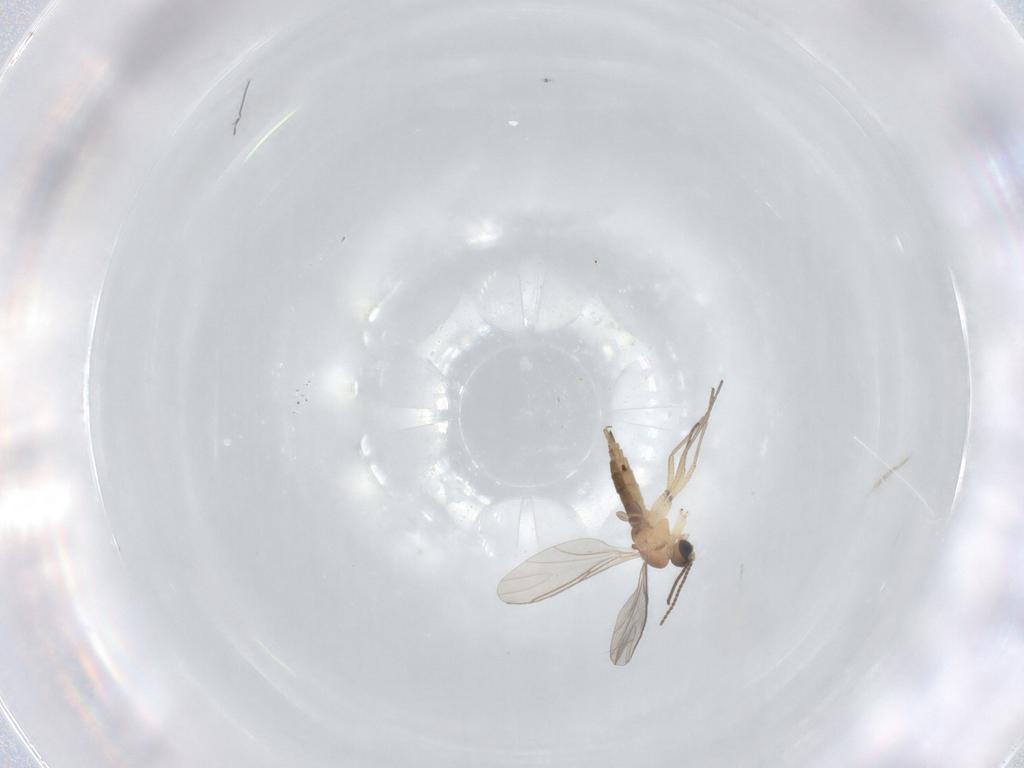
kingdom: Animalia
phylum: Arthropoda
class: Insecta
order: Diptera
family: Sciaridae
